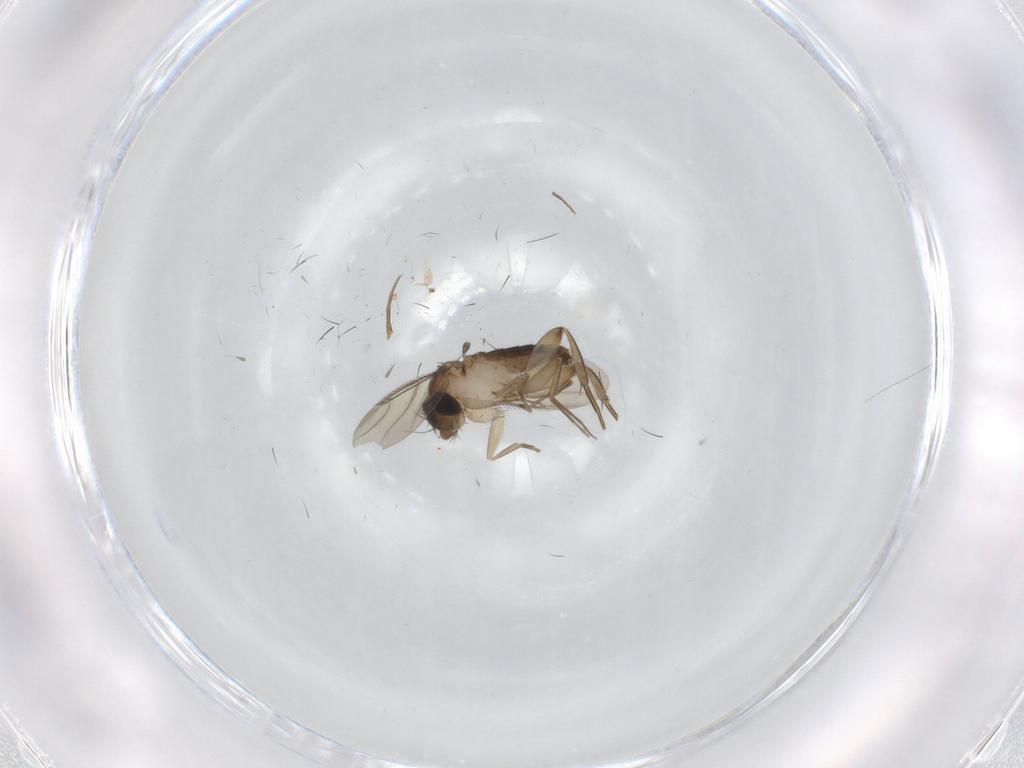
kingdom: Animalia
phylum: Arthropoda
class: Insecta
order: Diptera
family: Phoridae
